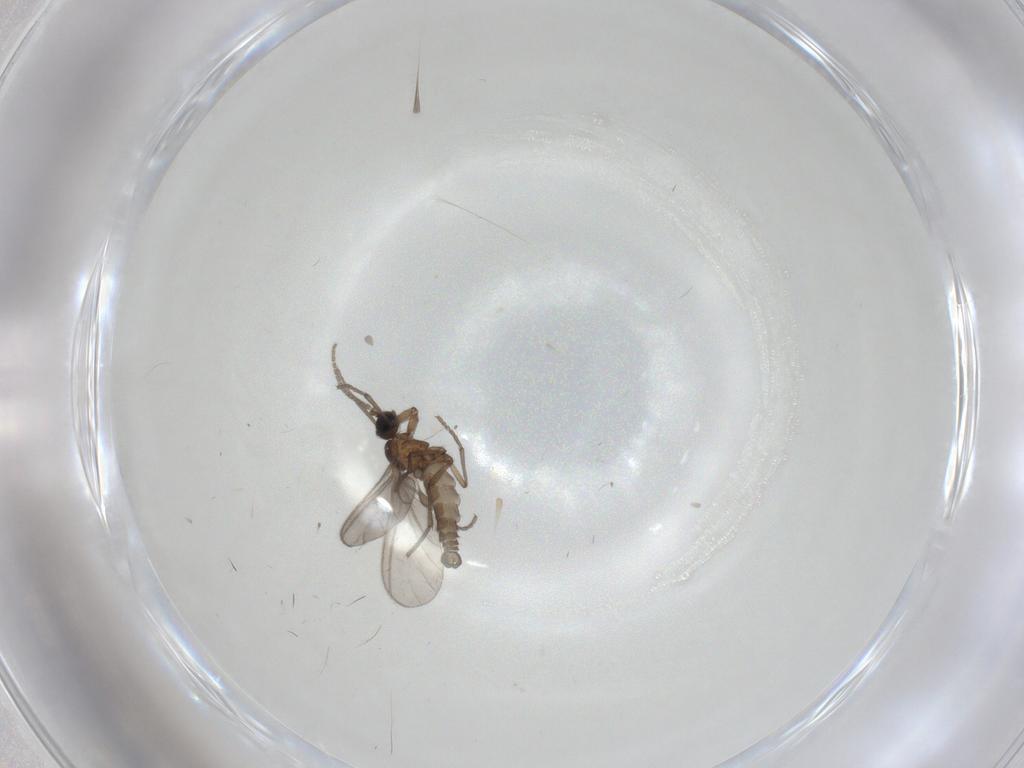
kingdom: Animalia
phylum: Arthropoda
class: Insecta
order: Diptera
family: Sciaridae
